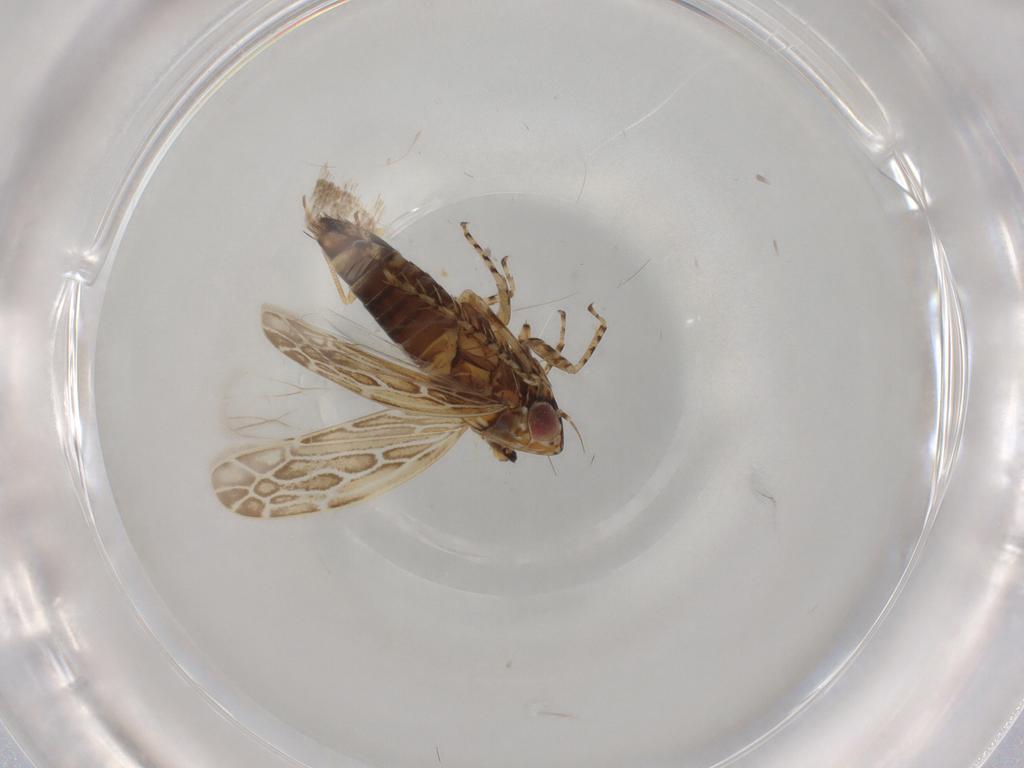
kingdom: Animalia
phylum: Arthropoda
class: Insecta
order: Hemiptera
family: Cicadellidae
